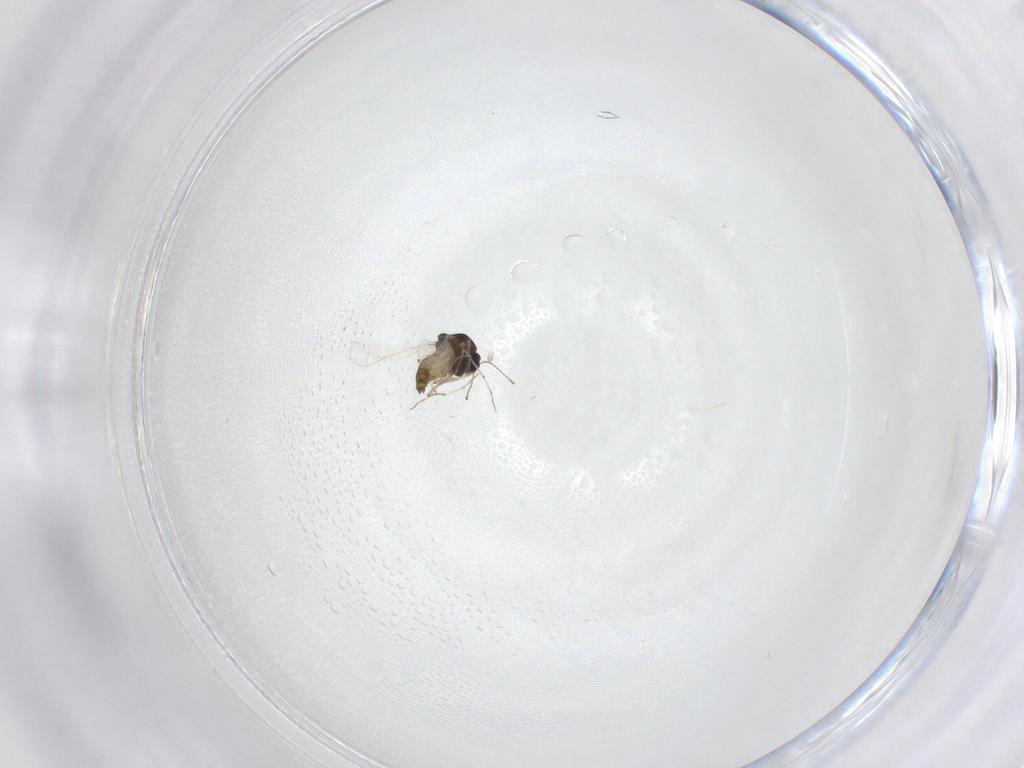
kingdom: Animalia
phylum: Arthropoda
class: Insecta
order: Diptera
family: Chironomidae
